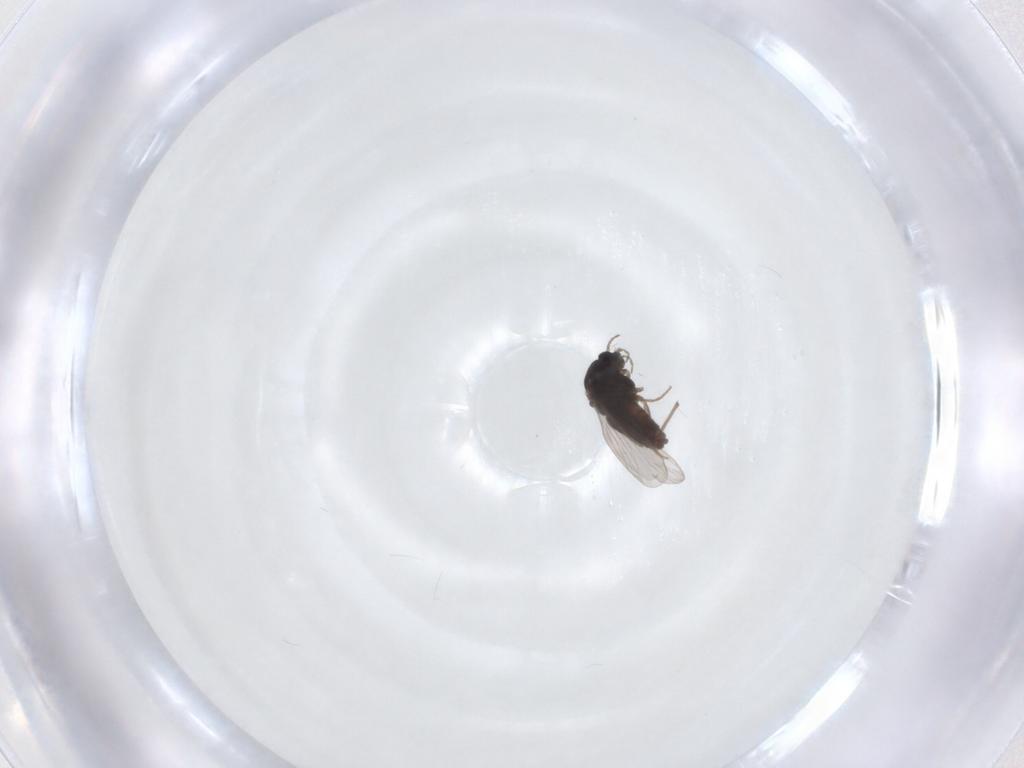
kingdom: Animalia
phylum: Arthropoda
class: Insecta
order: Diptera
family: Chironomidae
